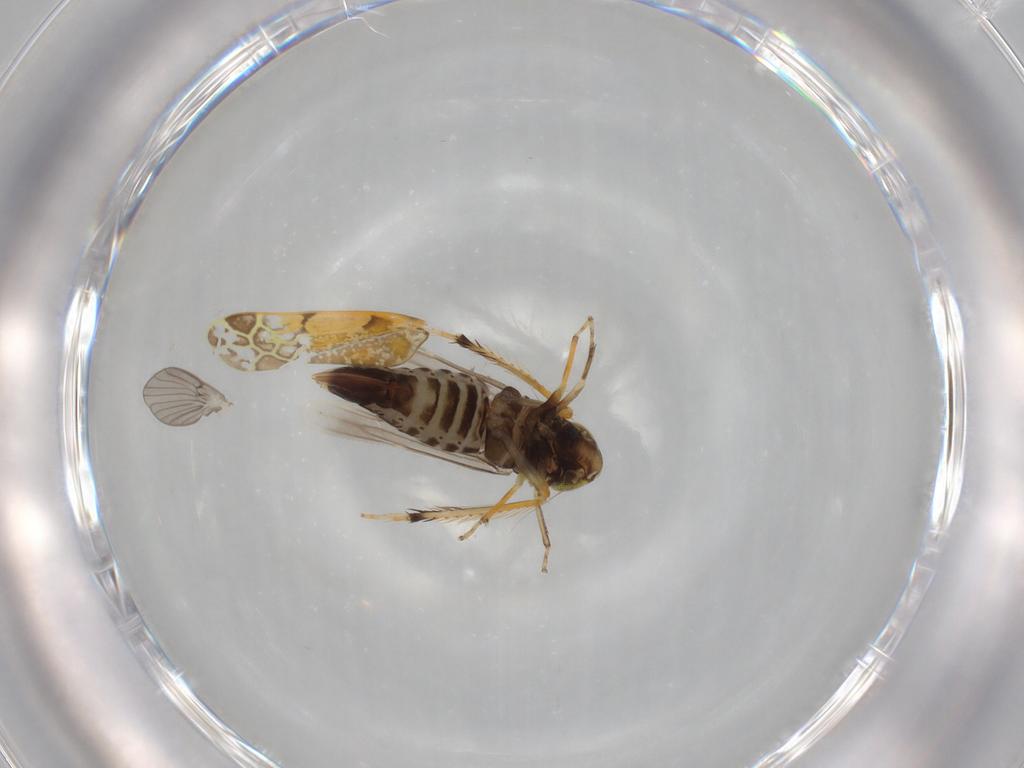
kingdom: Animalia
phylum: Arthropoda
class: Insecta
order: Hemiptera
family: Cicadellidae
